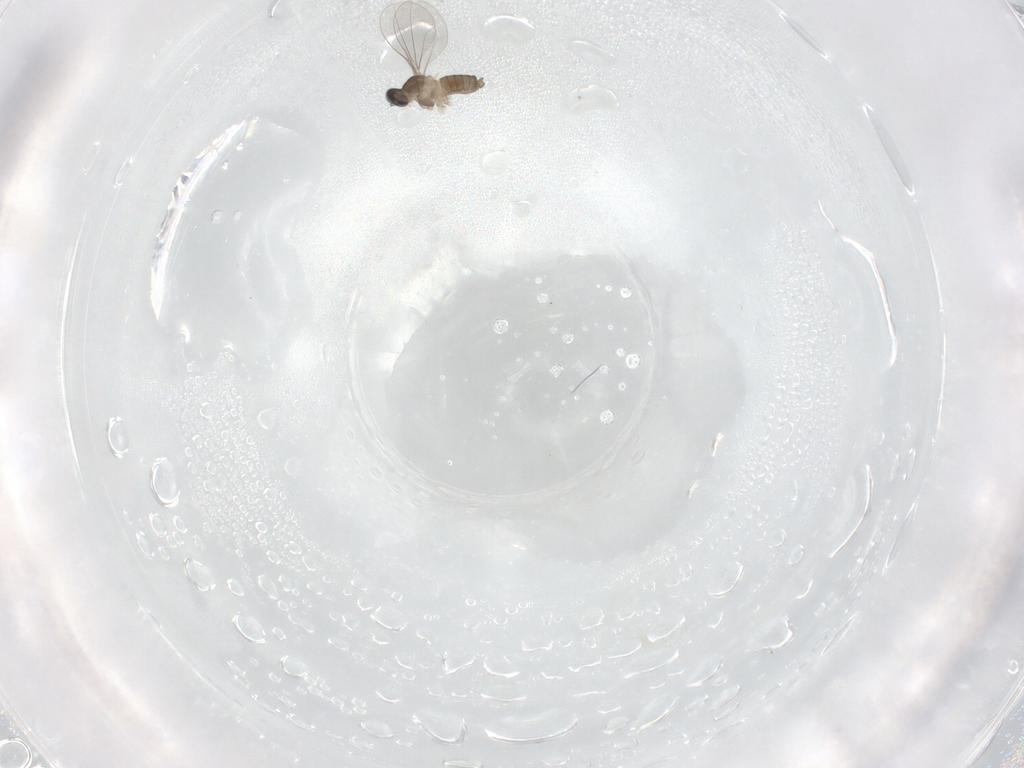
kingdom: Animalia
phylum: Arthropoda
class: Insecta
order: Diptera
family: Cecidomyiidae
